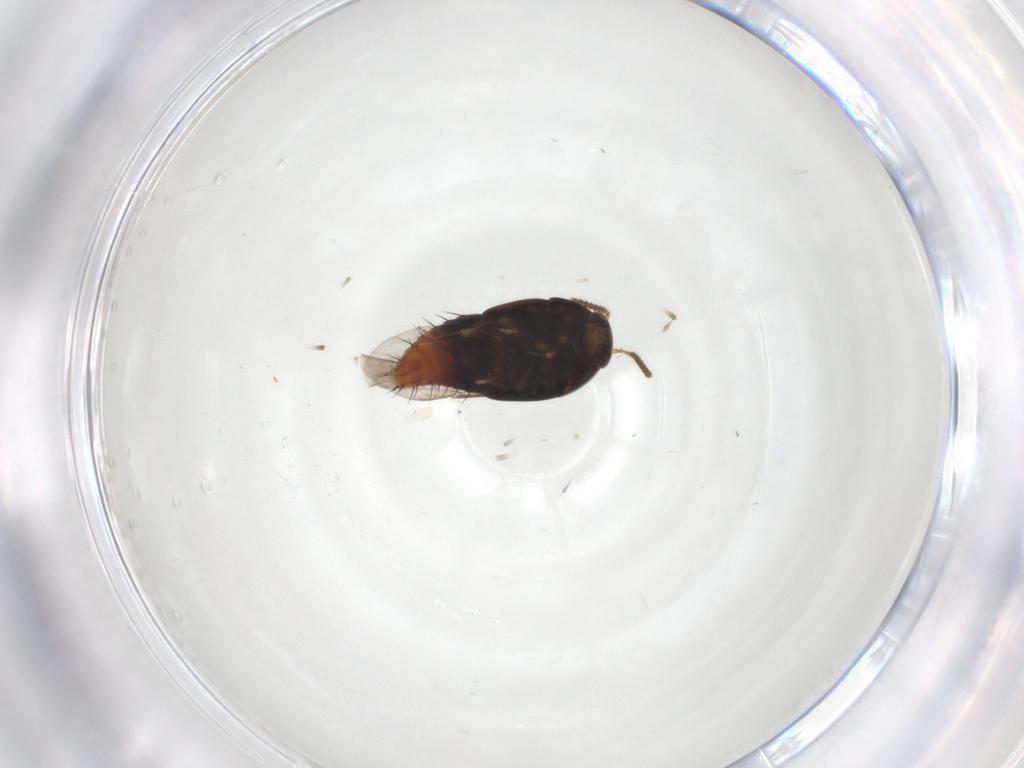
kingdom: Animalia
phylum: Arthropoda
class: Insecta
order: Coleoptera
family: Staphylinidae
